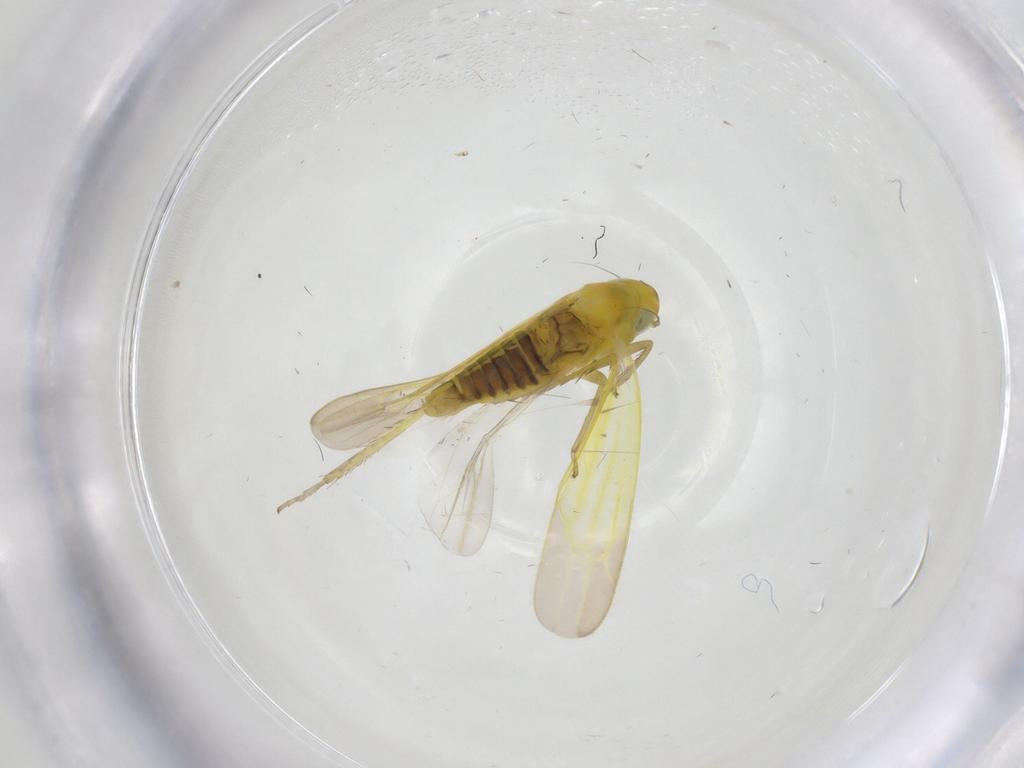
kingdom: Animalia
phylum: Arthropoda
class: Insecta
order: Hemiptera
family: Cicadellidae
